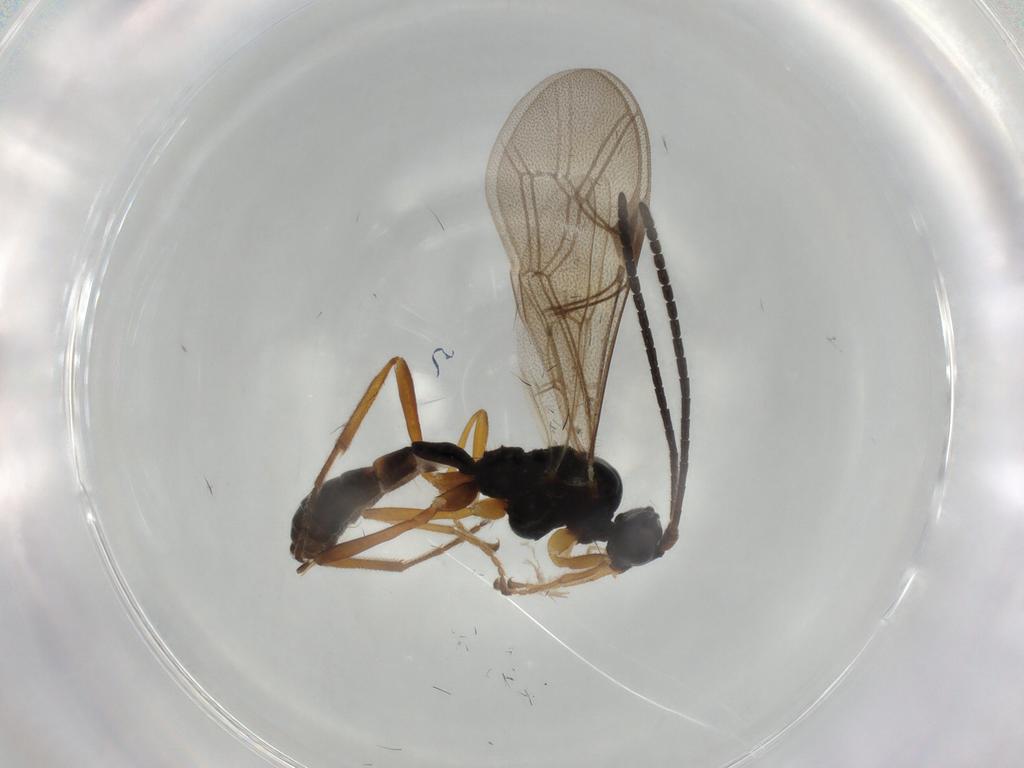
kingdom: Animalia
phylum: Arthropoda
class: Insecta
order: Hymenoptera
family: Ichneumonidae
